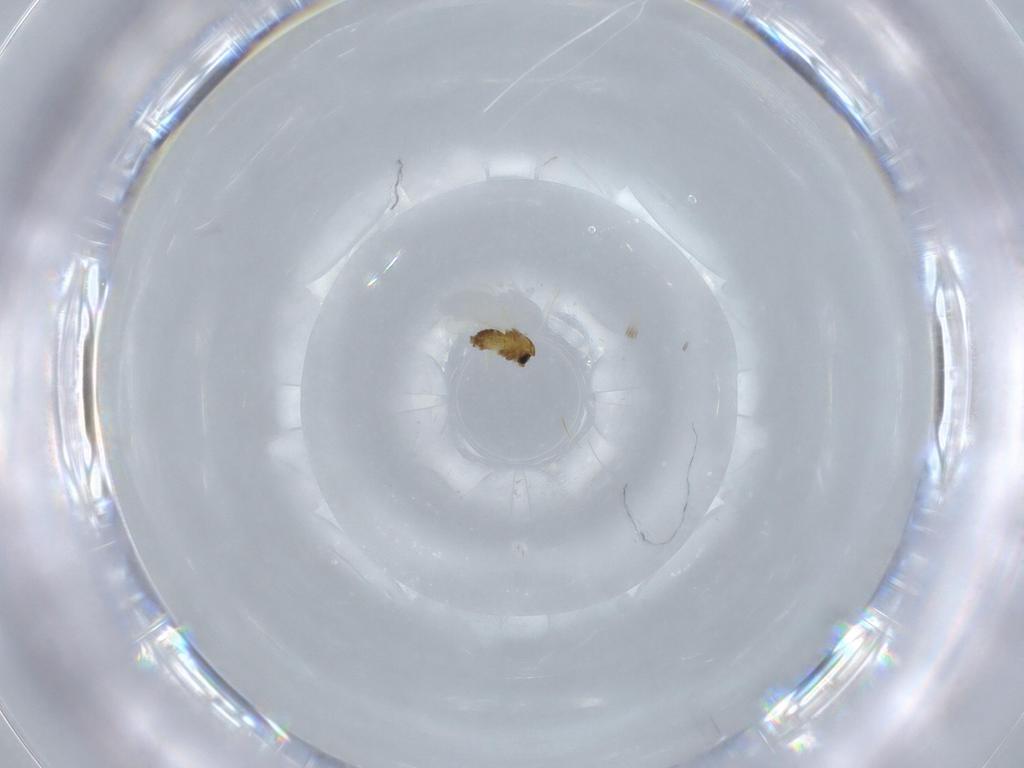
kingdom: Animalia
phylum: Arthropoda
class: Insecta
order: Diptera
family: Chironomidae
